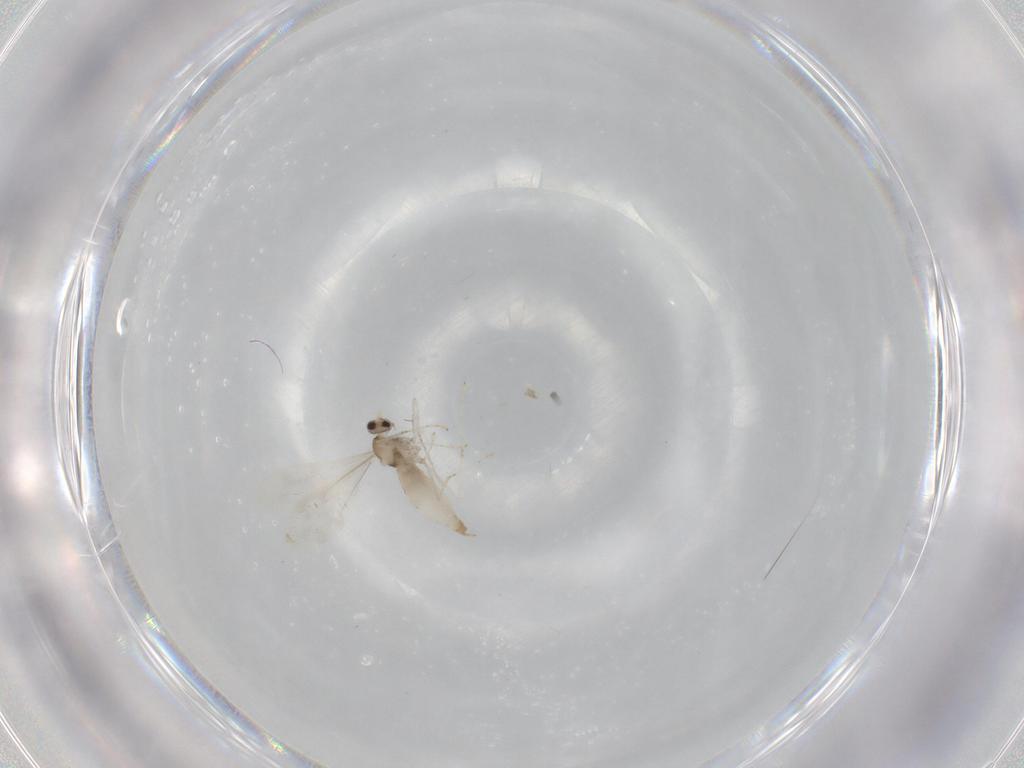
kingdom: Animalia
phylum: Arthropoda
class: Insecta
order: Diptera
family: Cecidomyiidae
